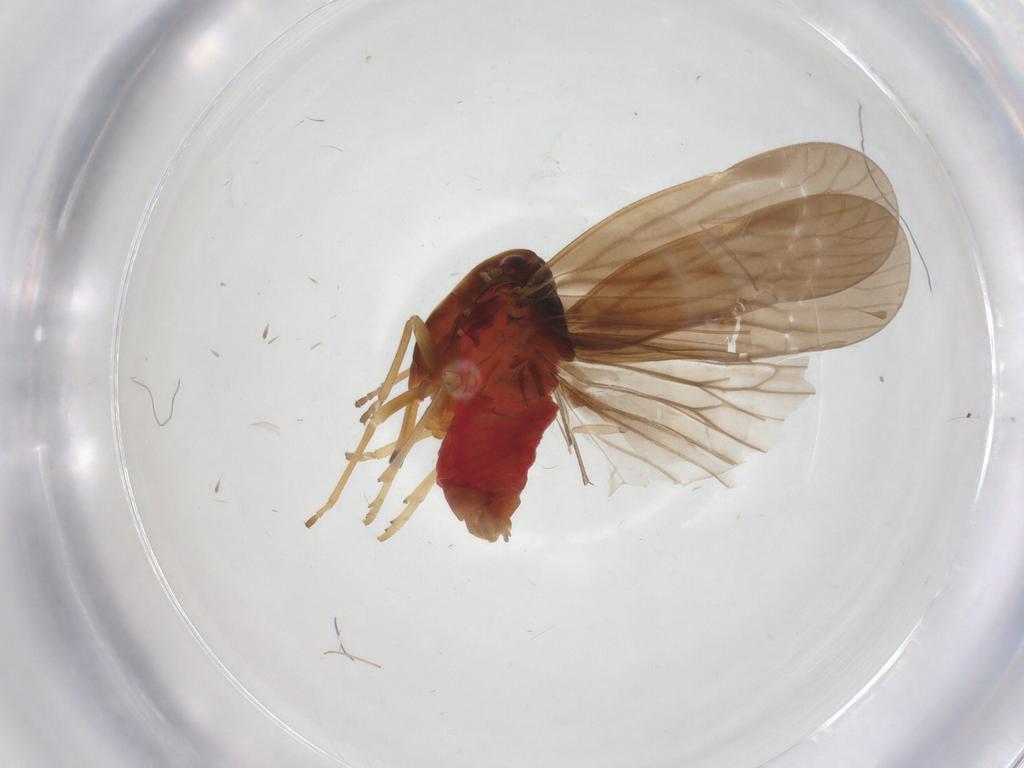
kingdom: Animalia
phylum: Arthropoda
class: Insecta
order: Hemiptera
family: Derbidae
